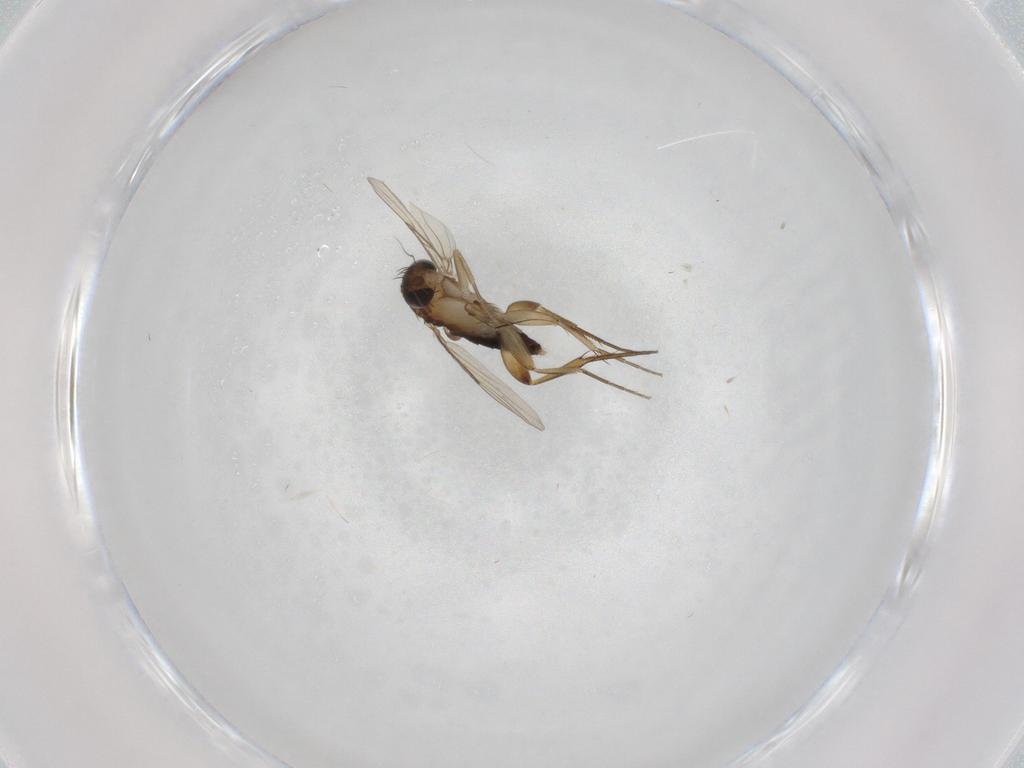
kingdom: Animalia
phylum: Arthropoda
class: Insecta
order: Diptera
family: Phoridae
